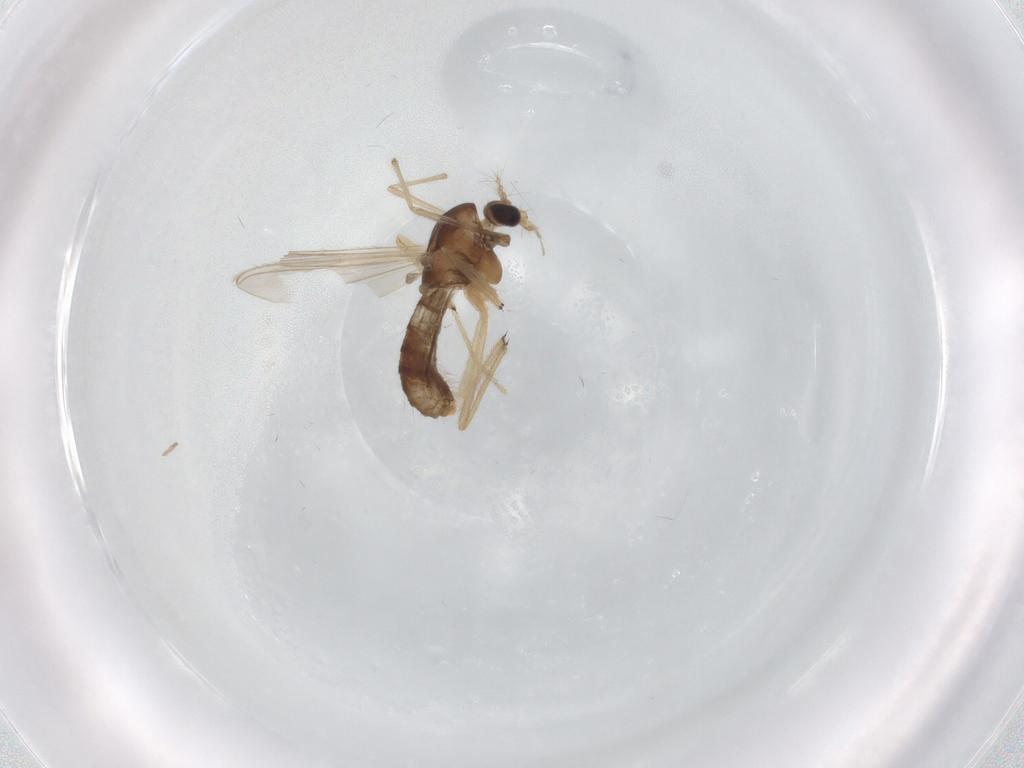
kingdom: Animalia
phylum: Arthropoda
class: Insecta
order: Diptera
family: Chironomidae
